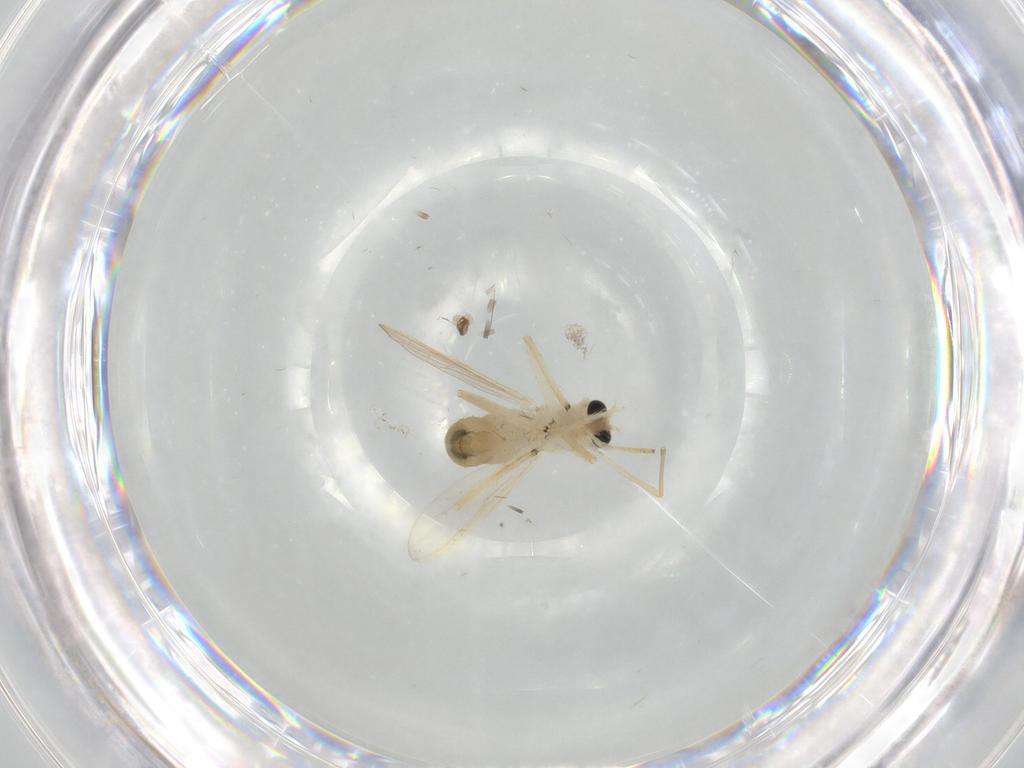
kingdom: Animalia
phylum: Arthropoda
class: Insecta
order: Diptera
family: Chironomidae
